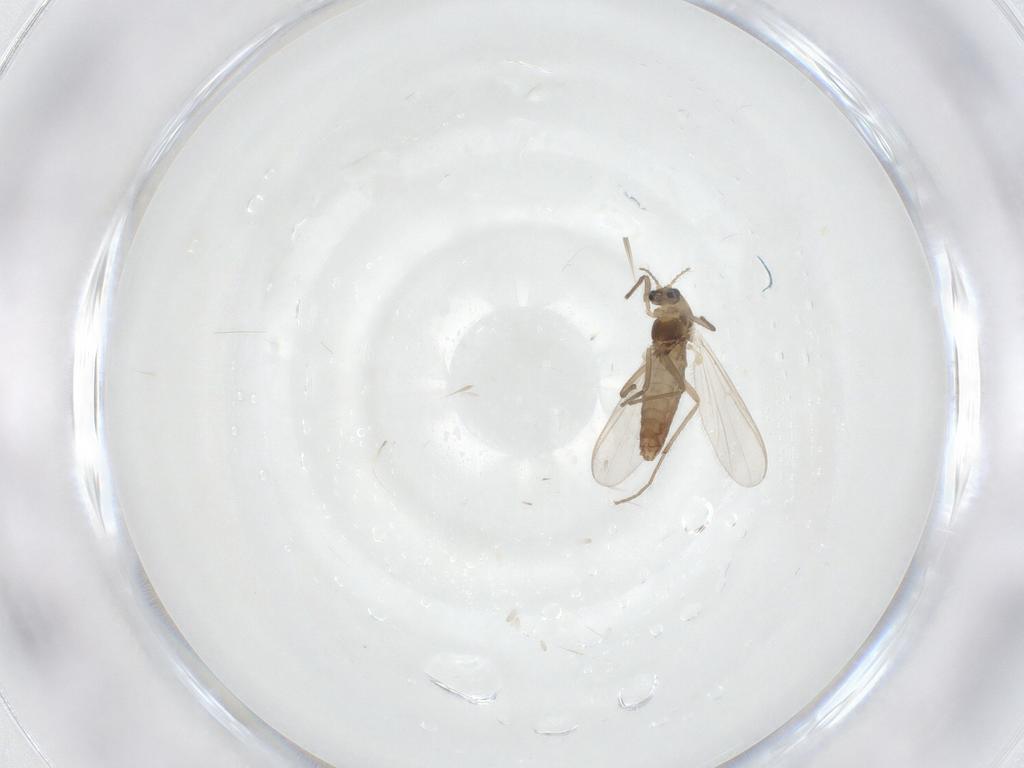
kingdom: Animalia
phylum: Arthropoda
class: Insecta
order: Diptera
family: Chironomidae
